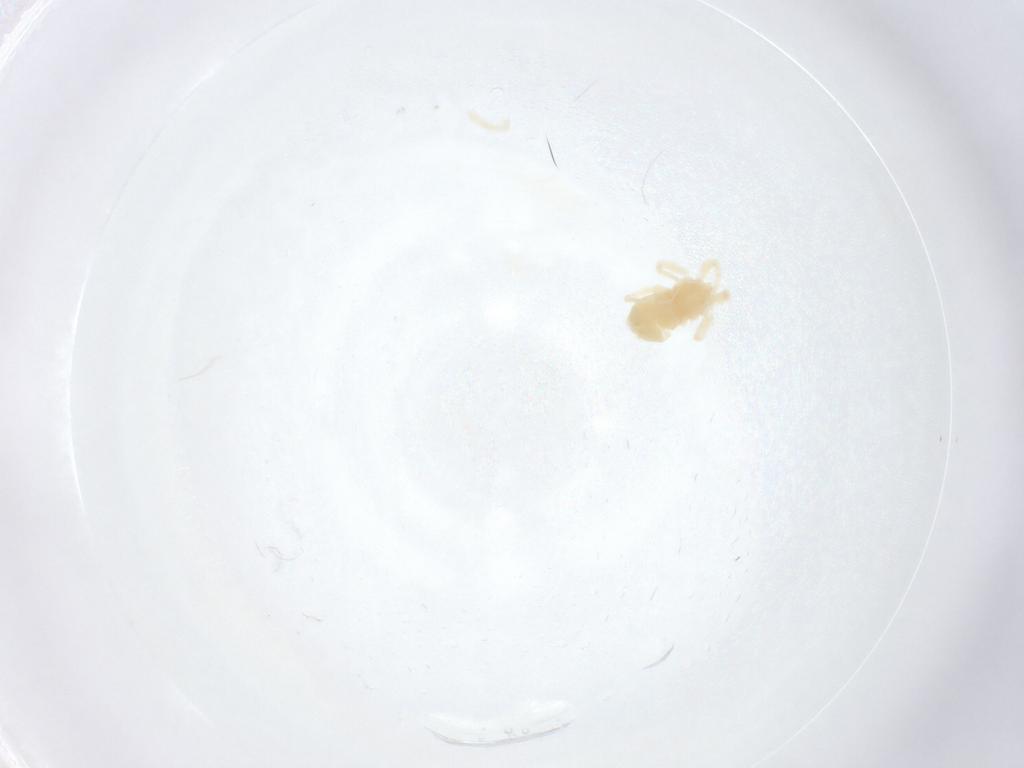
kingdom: Animalia
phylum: Arthropoda
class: Arachnida
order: Trombidiformes
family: Anystidae
